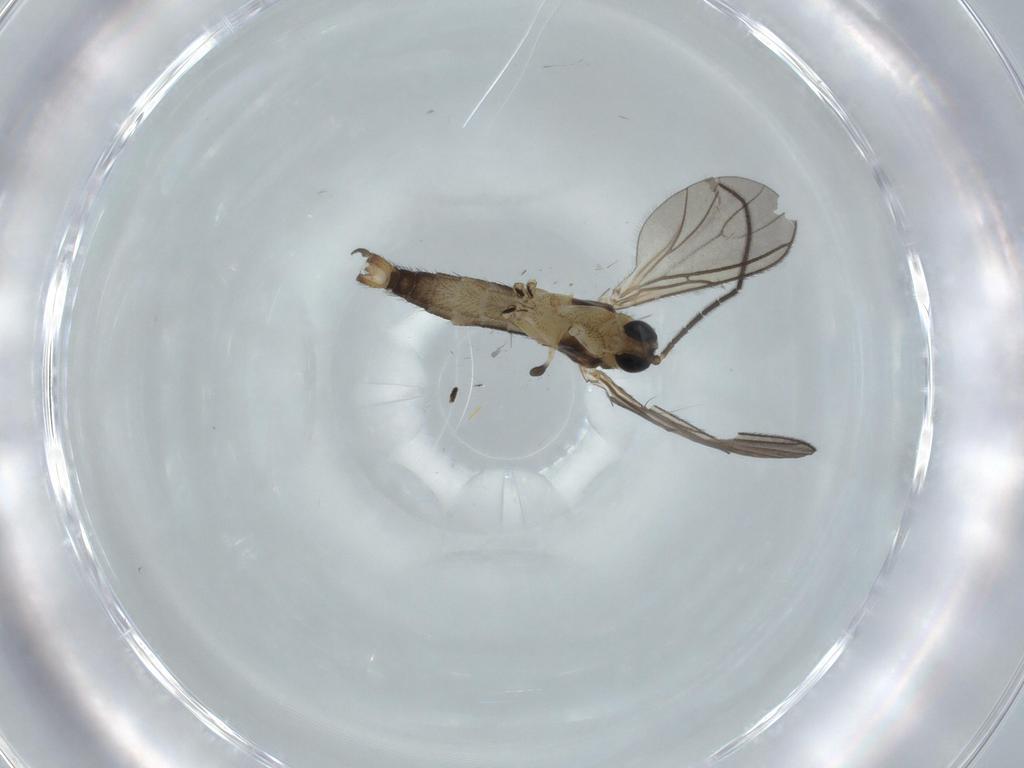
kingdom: Animalia
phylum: Arthropoda
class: Insecta
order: Diptera
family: Sciaridae
